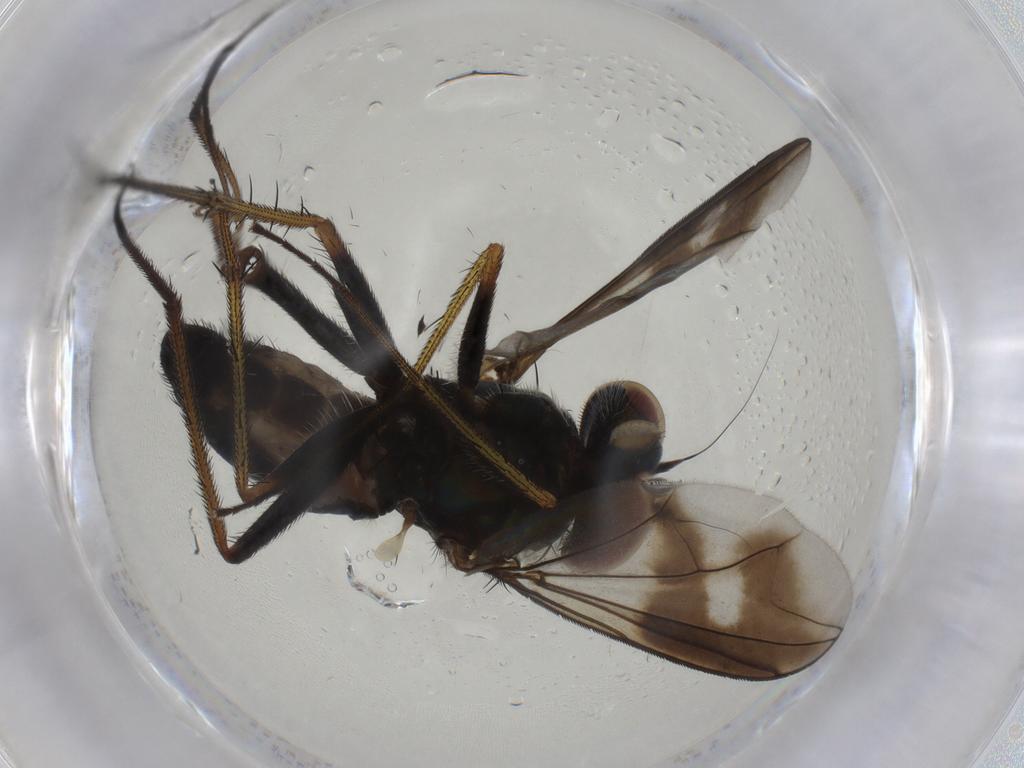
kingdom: Animalia
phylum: Arthropoda
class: Insecta
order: Diptera
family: Dolichopodidae
